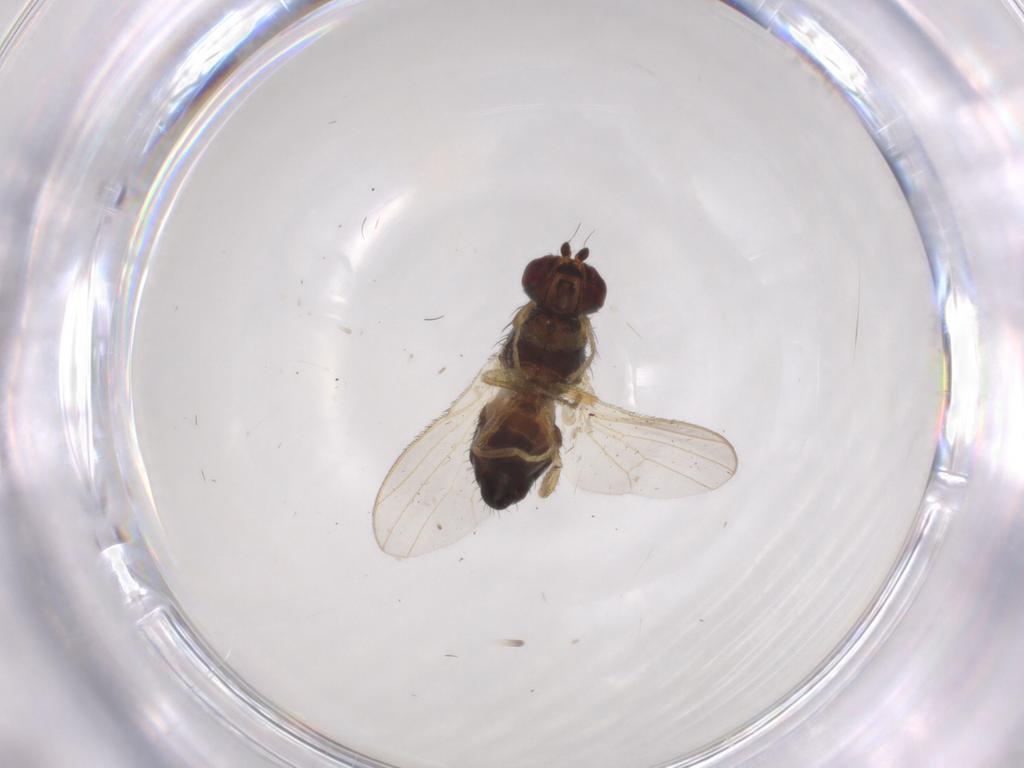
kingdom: Animalia
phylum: Arthropoda
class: Insecta
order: Diptera
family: Heleomyzidae
